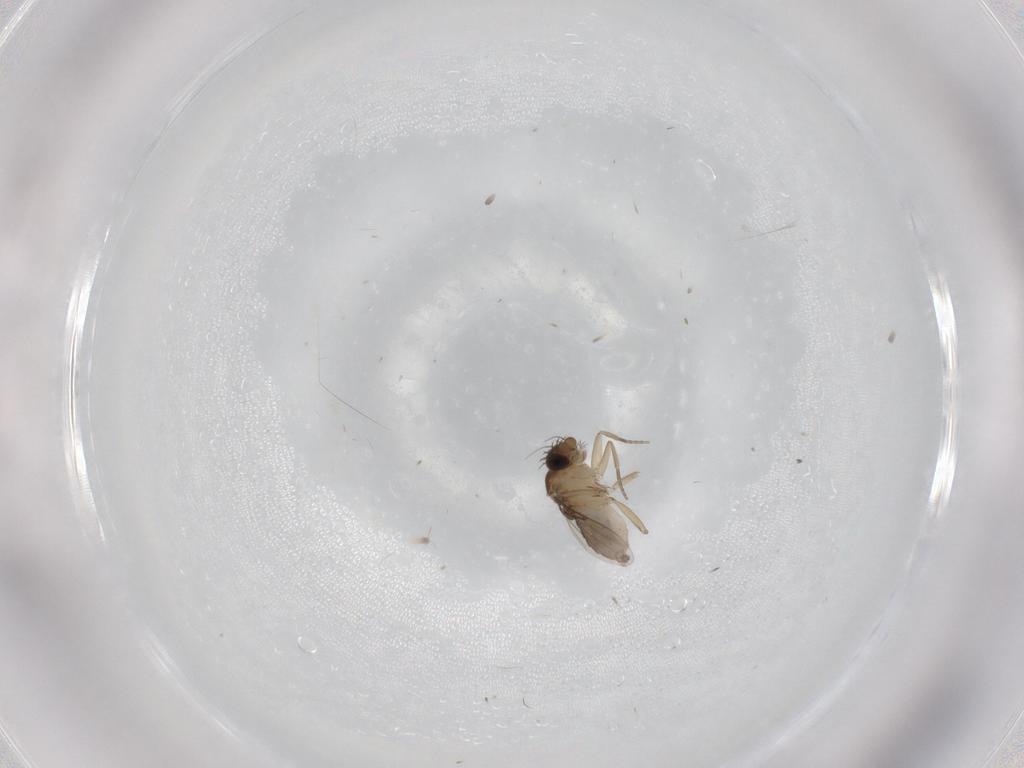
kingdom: Animalia
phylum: Arthropoda
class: Insecta
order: Diptera
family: Phoridae
